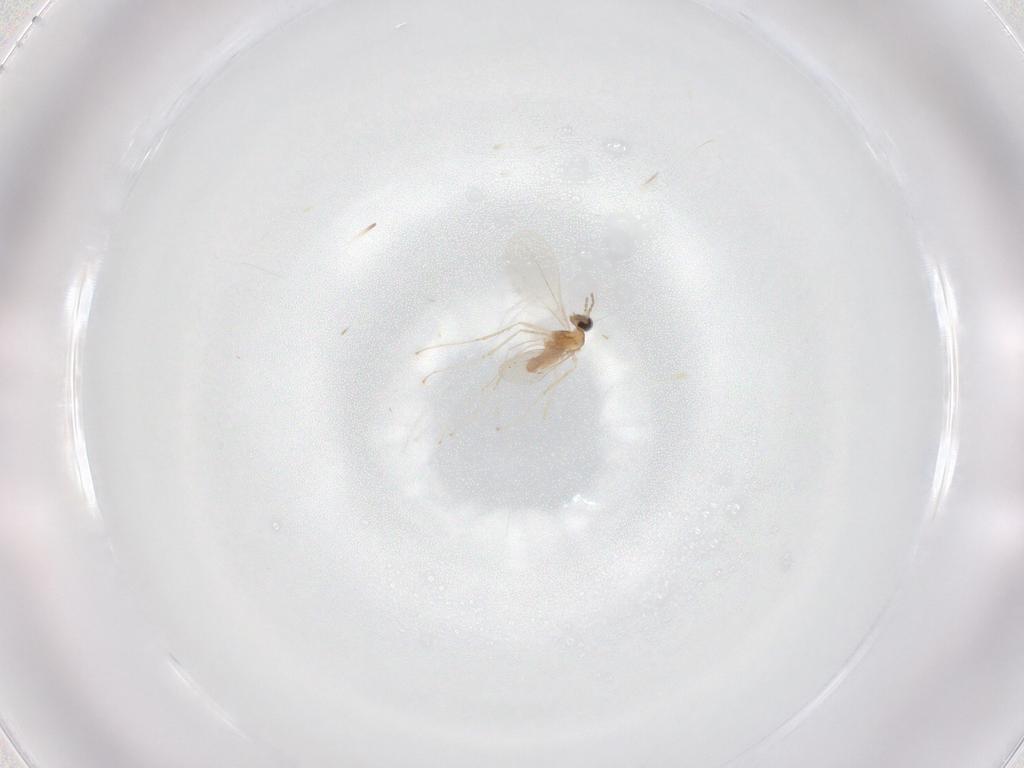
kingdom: Animalia
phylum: Arthropoda
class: Insecta
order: Diptera
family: Cecidomyiidae
